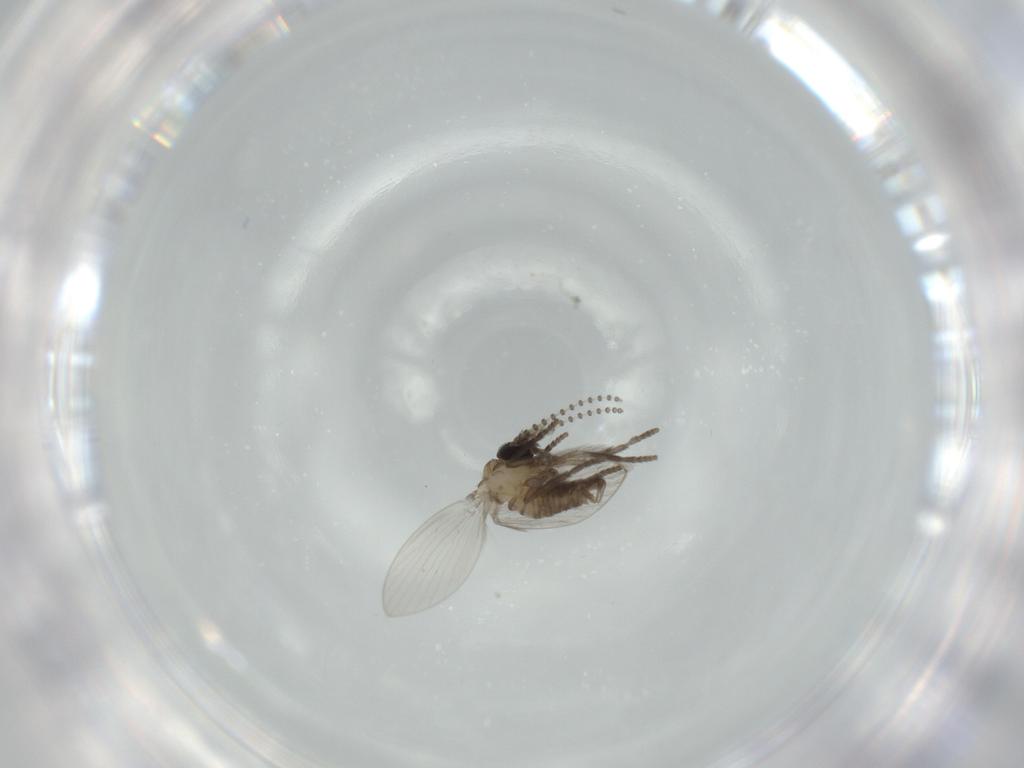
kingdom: Animalia
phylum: Arthropoda
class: Insecta
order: Diptera
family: Psychodidae
